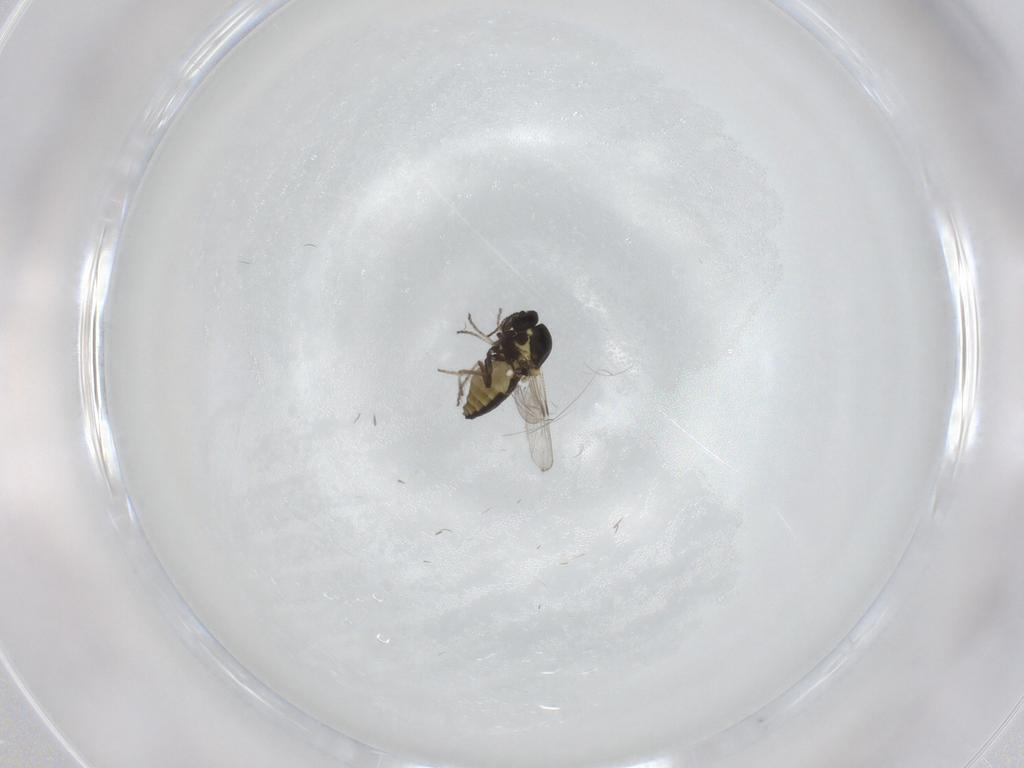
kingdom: Animalia
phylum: Arthropoda
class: Insecta
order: Diptera
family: Ceratopogonidae
